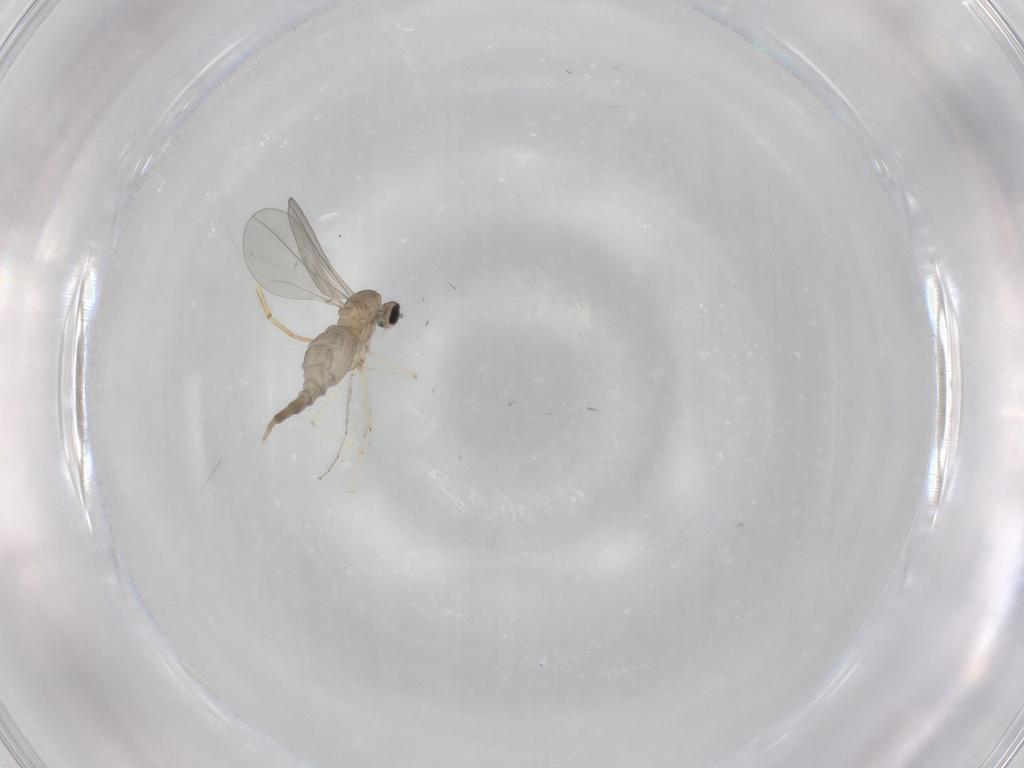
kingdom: Animalia
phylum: Arthropoda
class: Insecta
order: Diptera
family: Cecidomyiidae
